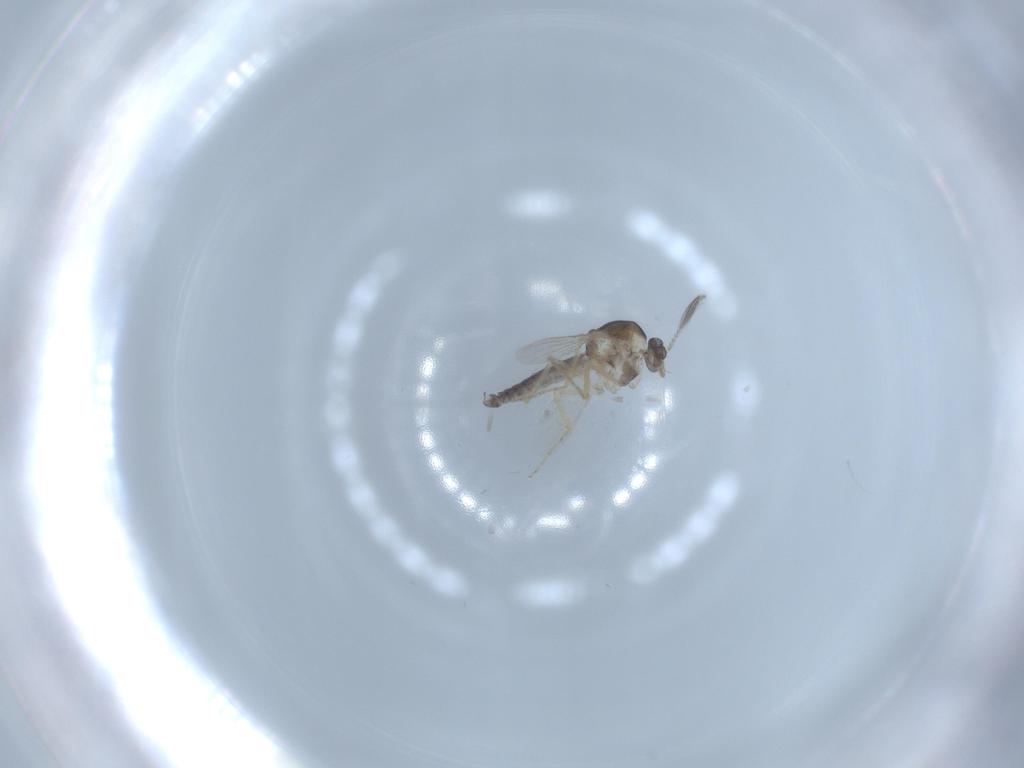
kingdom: Animalia
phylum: Arthropoda
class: Insecta
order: Diptera
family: Ceratopogonidae
